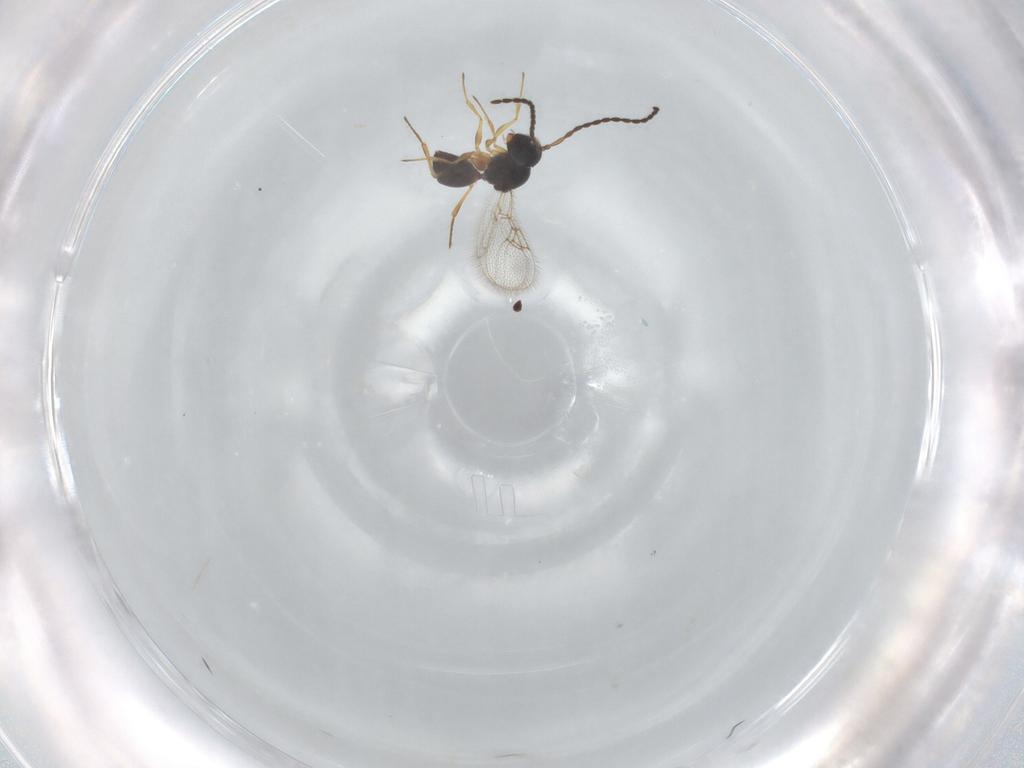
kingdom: Animalia
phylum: Arthropoda
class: Insecta
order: Hymenoptera
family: Figitidae
